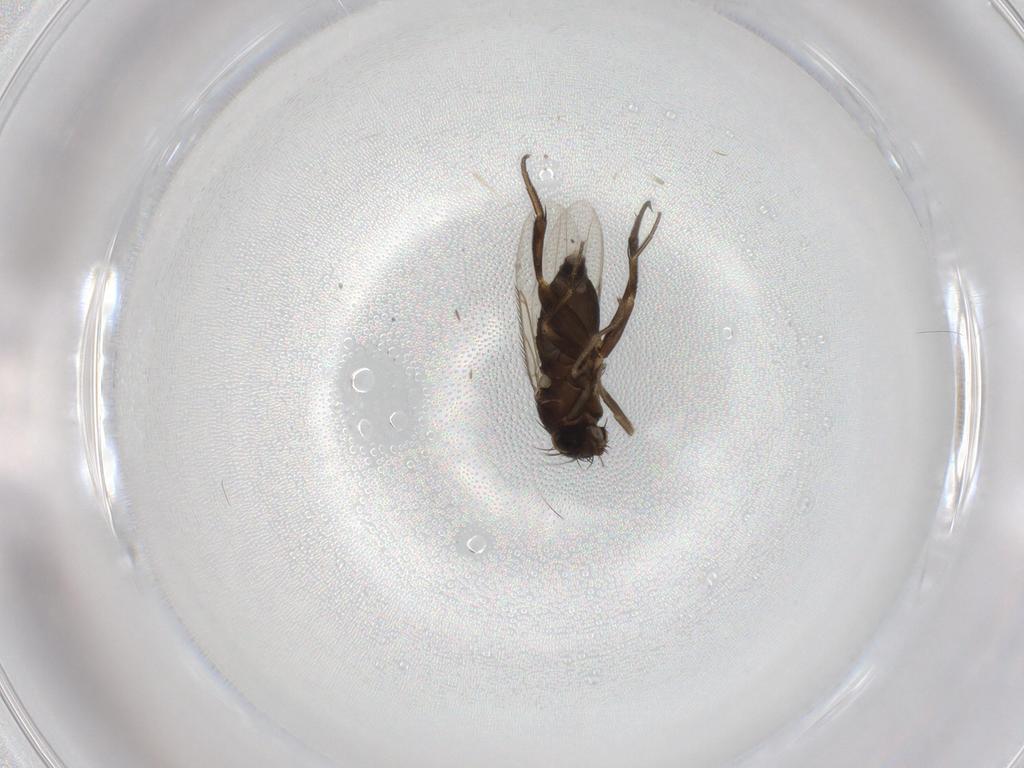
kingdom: Animalia
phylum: Arthropoda
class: Insecta
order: Diptera
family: Phoridae
